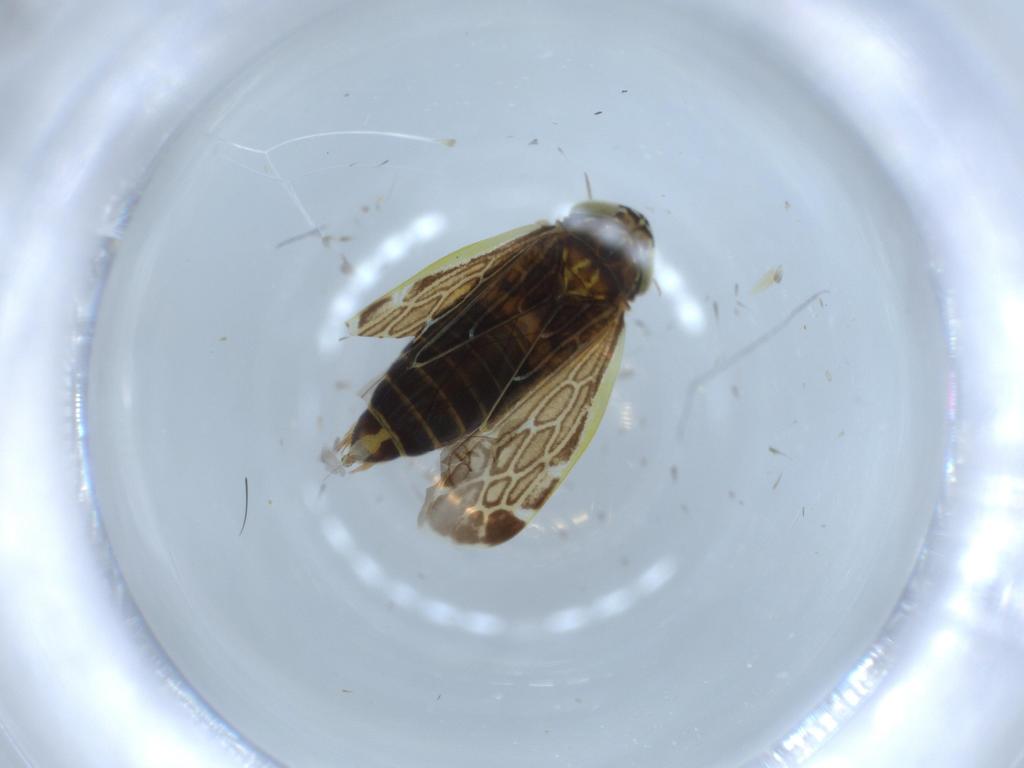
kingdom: Animalia
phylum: Arthropoda
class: Insecta
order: Hemiptera
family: Cicadellidae
